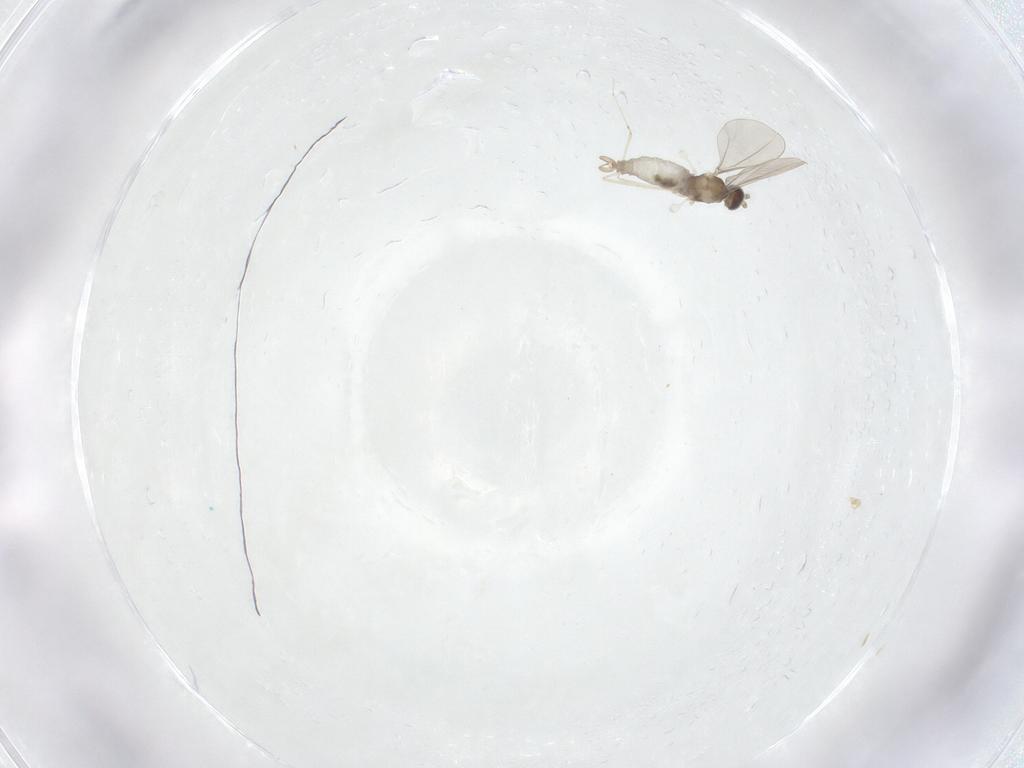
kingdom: Animalia
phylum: Arthropoda
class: Insecta
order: Diptera
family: Cecidomyiidae
